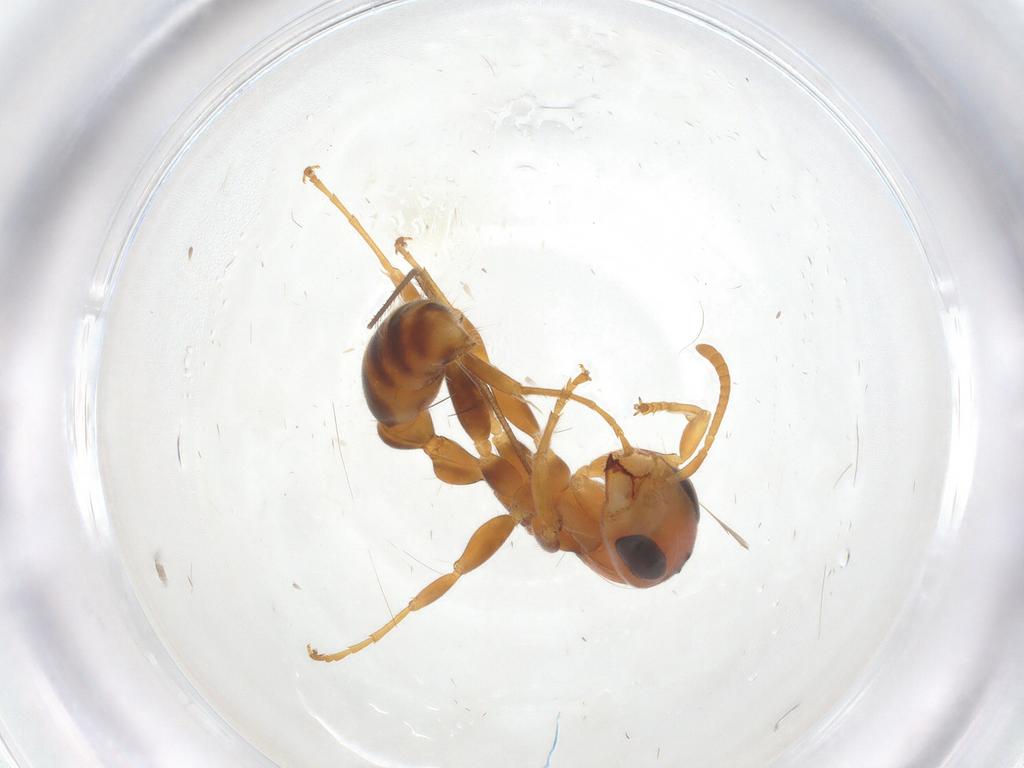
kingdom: Animalia
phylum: Arthropoda
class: Insecta
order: Hymenoptera
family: Formicidae
